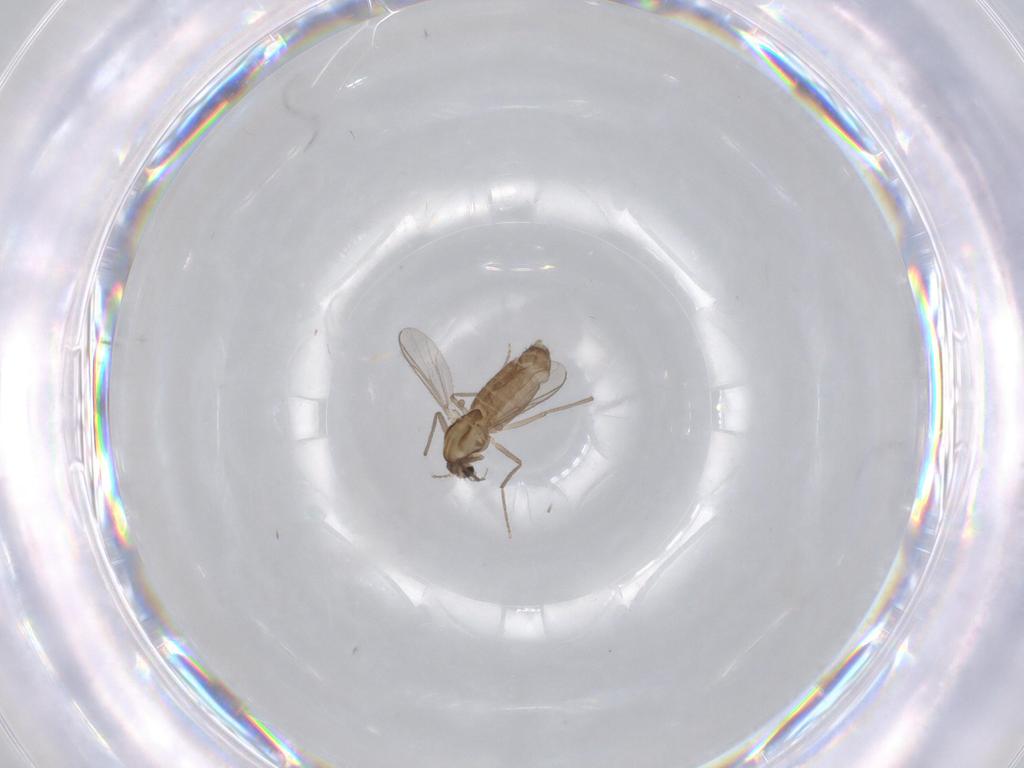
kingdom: Animalia
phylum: Arthropoda
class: Insecta
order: Diptera
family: Chironomidae
